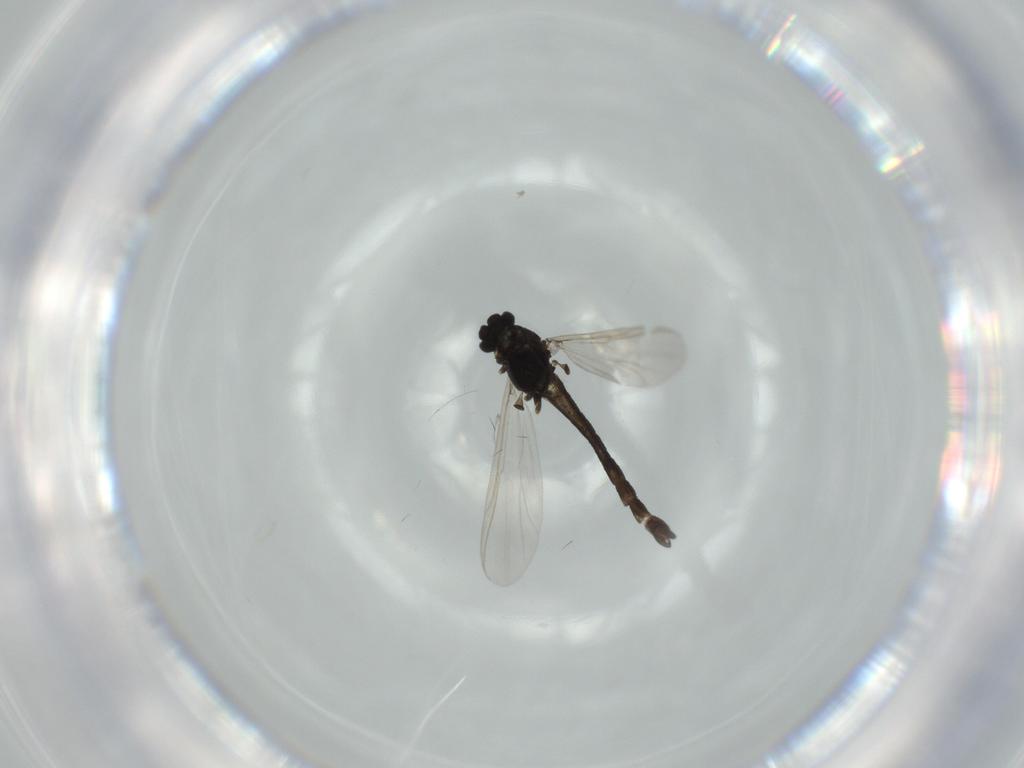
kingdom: Animalia
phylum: Arthropoda
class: Insecta
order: Diptera
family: Chironomidae
